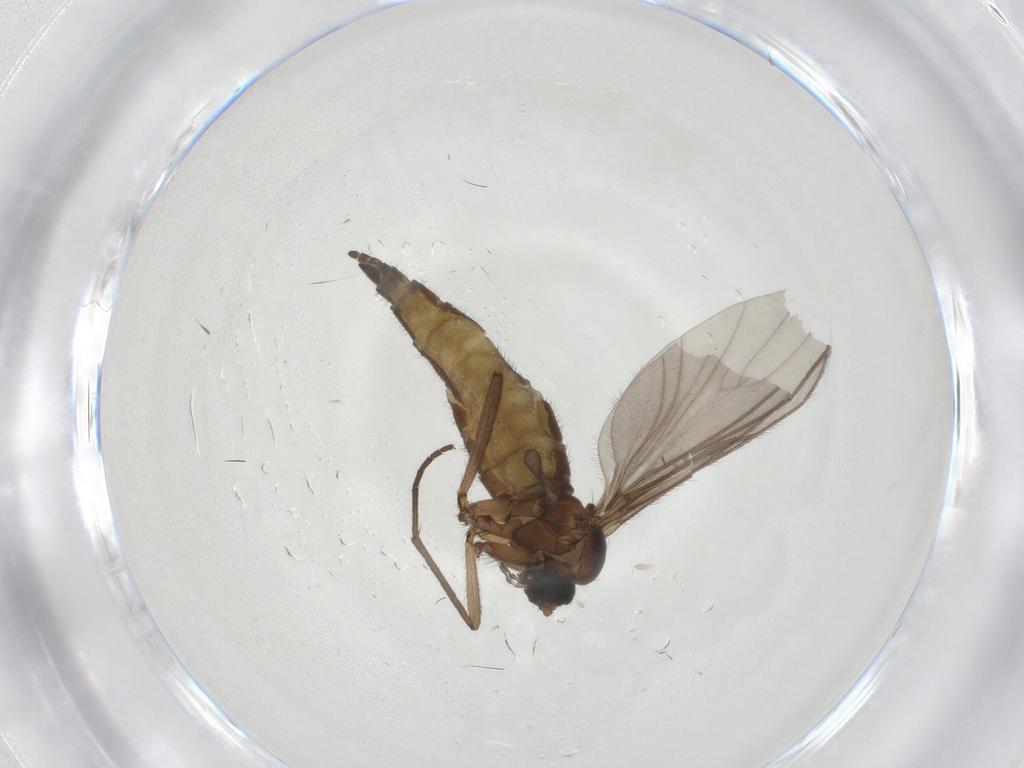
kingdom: Animalia
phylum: Arthropoda
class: Insecta
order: Diptera
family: Sciaridae
